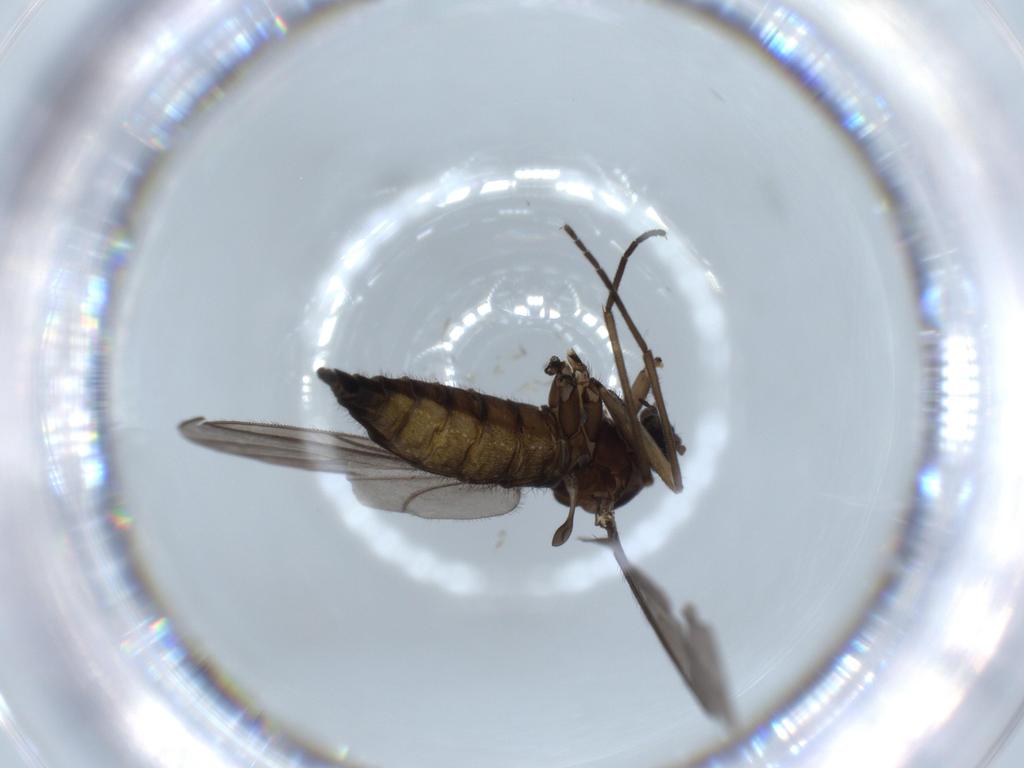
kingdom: Animalia
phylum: Arthropoda
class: Insecta
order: Diptera
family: Sciaridae
